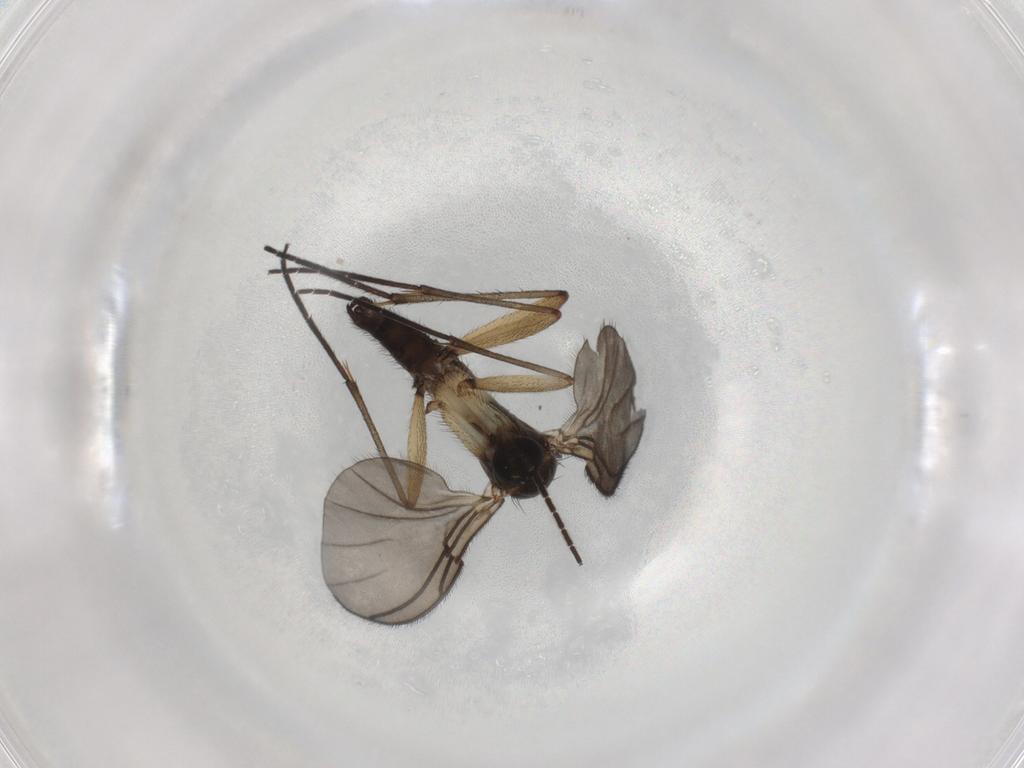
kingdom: Animalia
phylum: Arthropoda
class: Insecta
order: Diptera
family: Sciaridae
